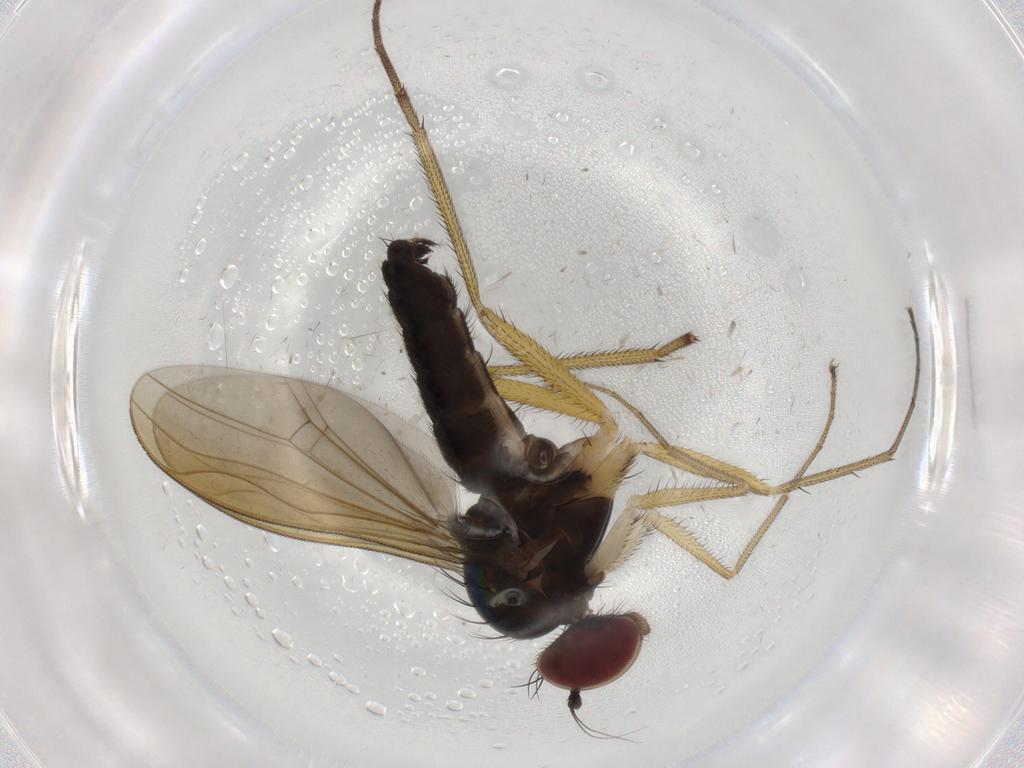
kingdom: Animalia
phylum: Arthropoda
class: Insecta
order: Diptera
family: Dolichopodidae
